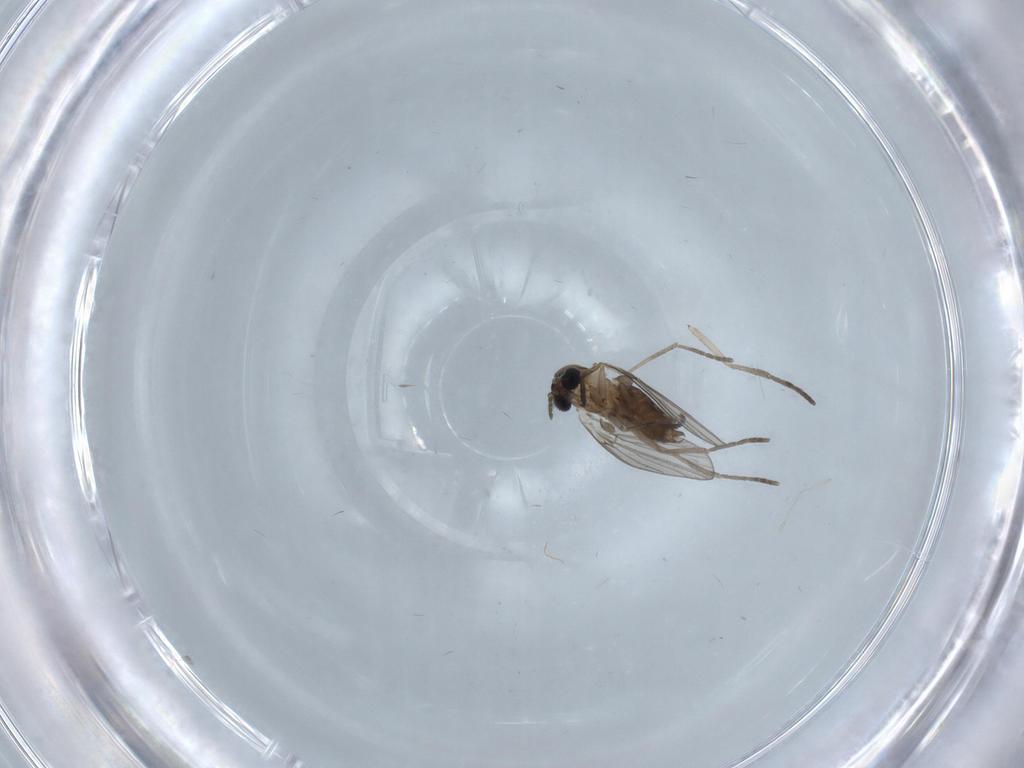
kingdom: Animalia
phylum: Arthropoda
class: Insecta
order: Diptera
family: Psychodidae
